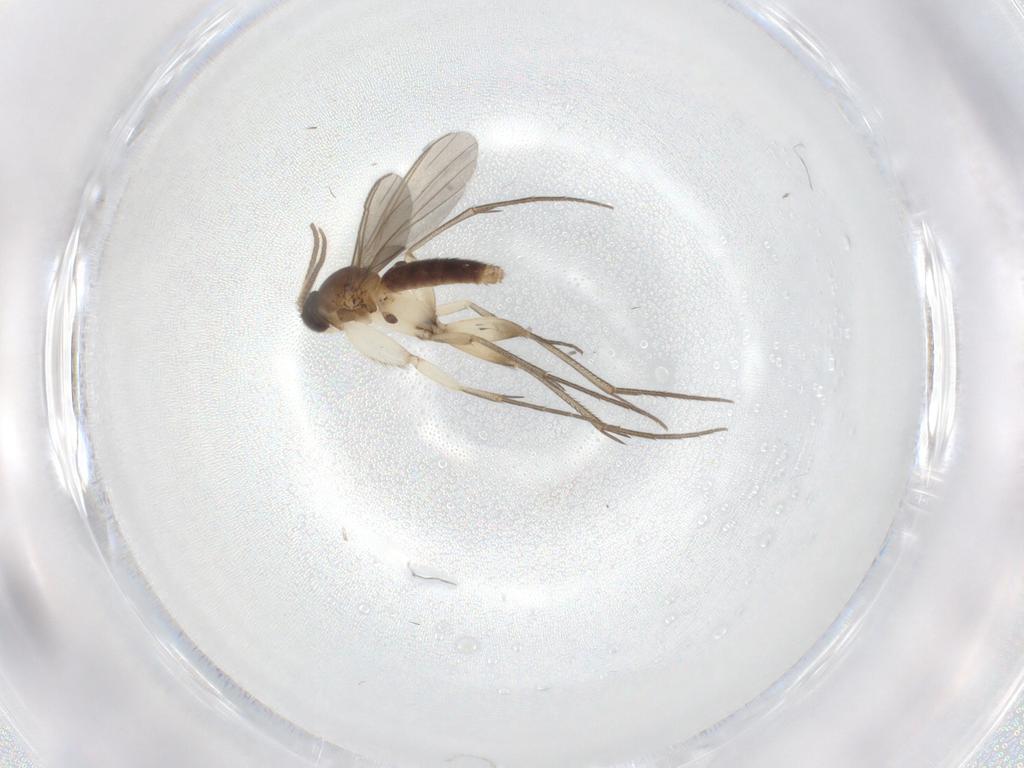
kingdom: Animalia
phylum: Arthropoda
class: Insecta
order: Diptera
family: Mycetophilidae
